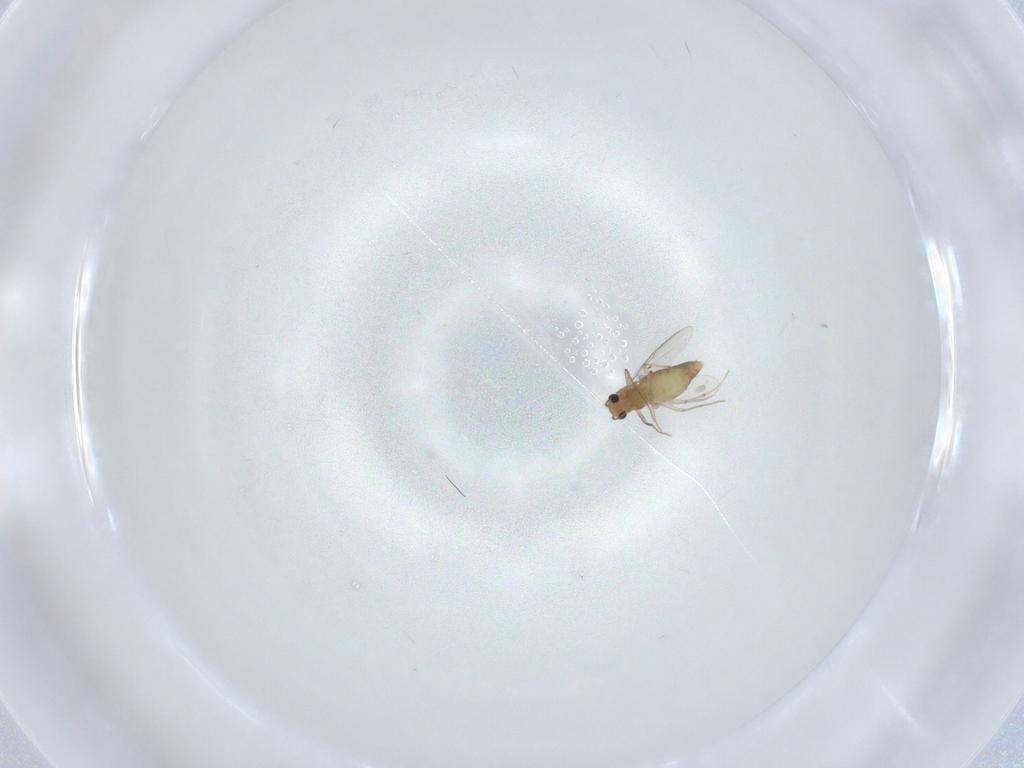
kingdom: Animalia
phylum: Arthropoda
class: Insecta
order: Diptera
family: Chironomidae
